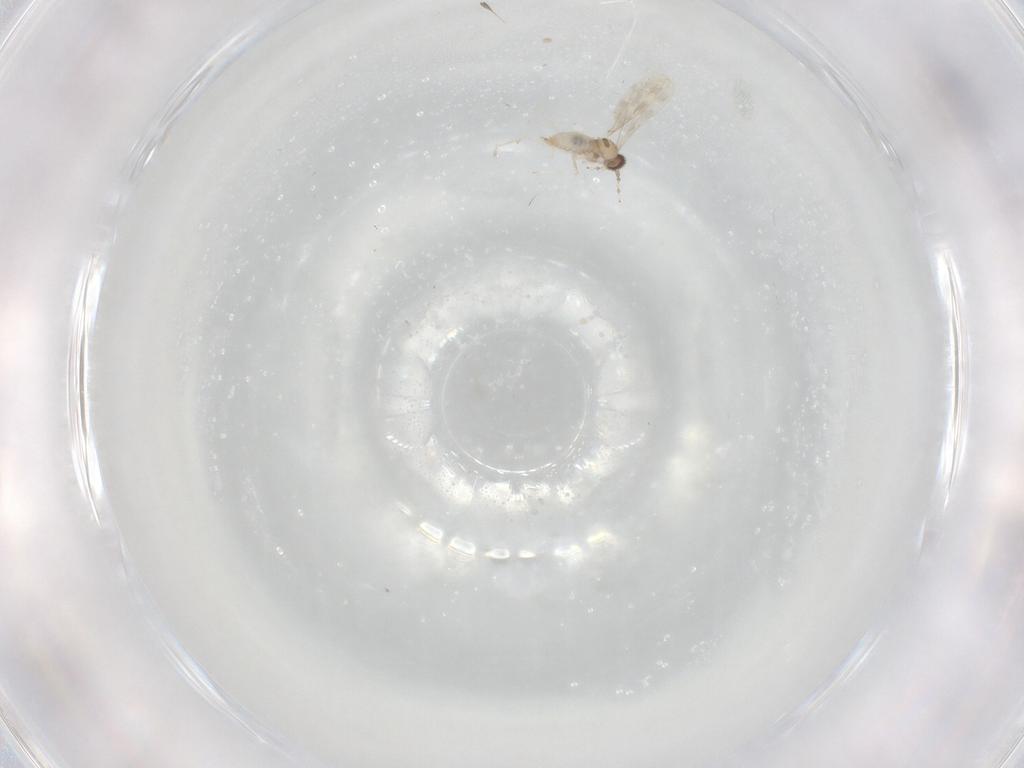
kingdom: Animalia
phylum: Arthropoda
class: Insecta
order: Diptera
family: Cecidomyiidae
